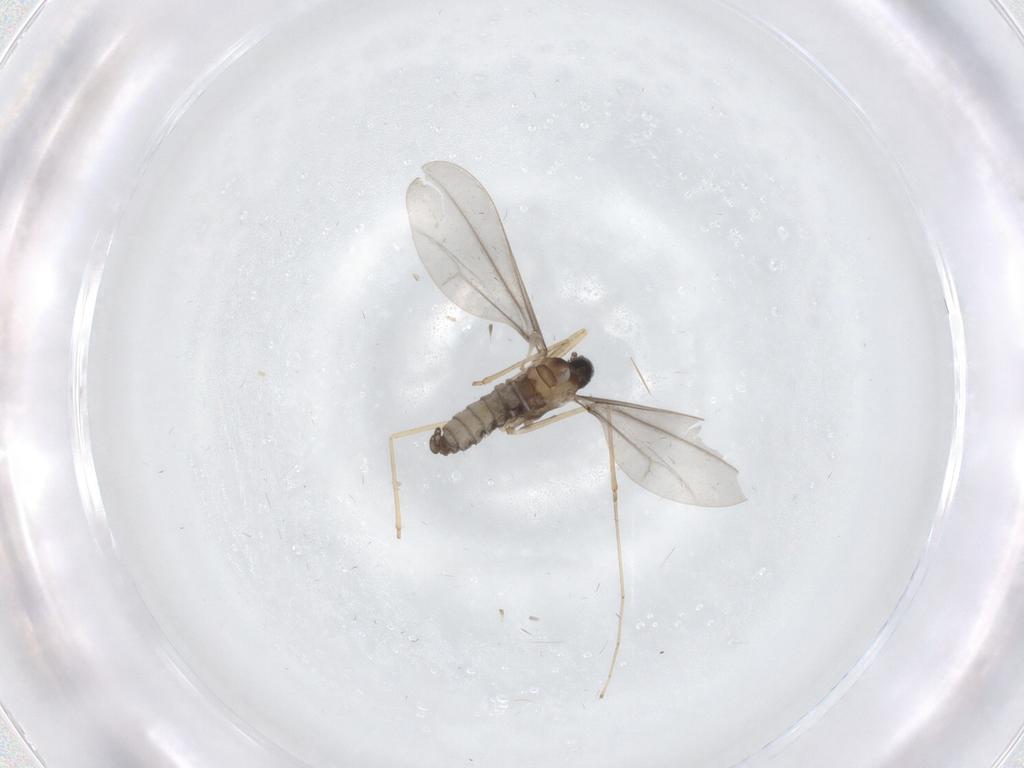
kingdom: Animalia
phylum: Arthropoda
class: Insecta
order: Diptera
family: Cecidomyiidae
